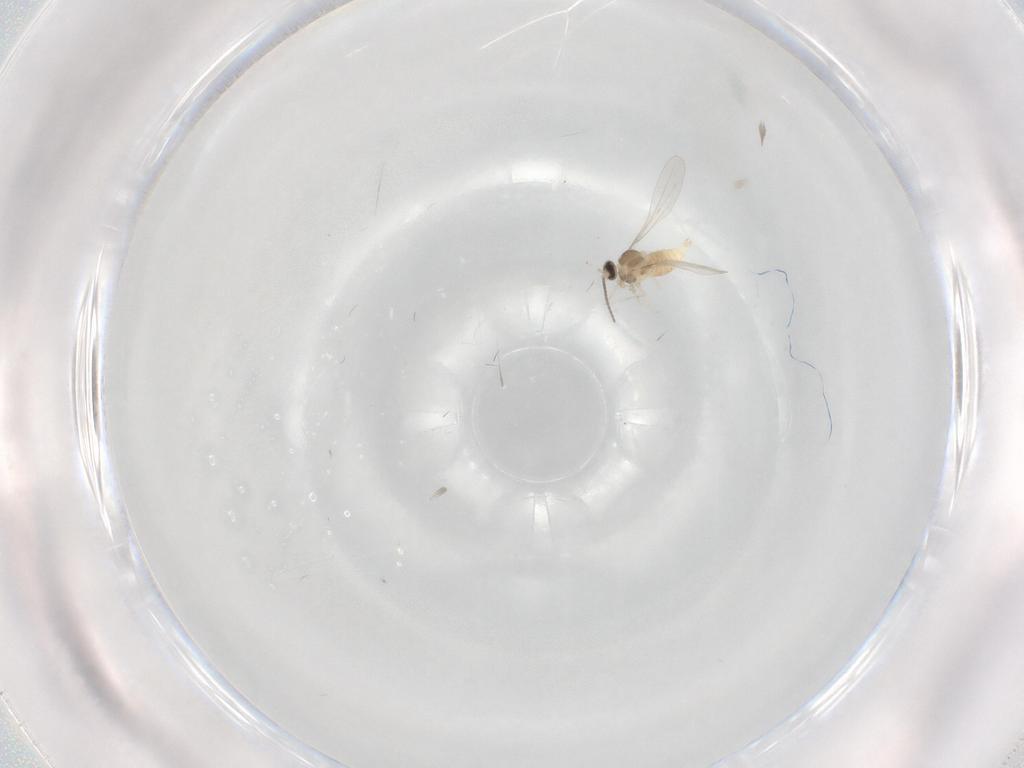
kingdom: Animalia
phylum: Arthropoda
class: Insecta
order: Diptera
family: Cecidomyiidae
